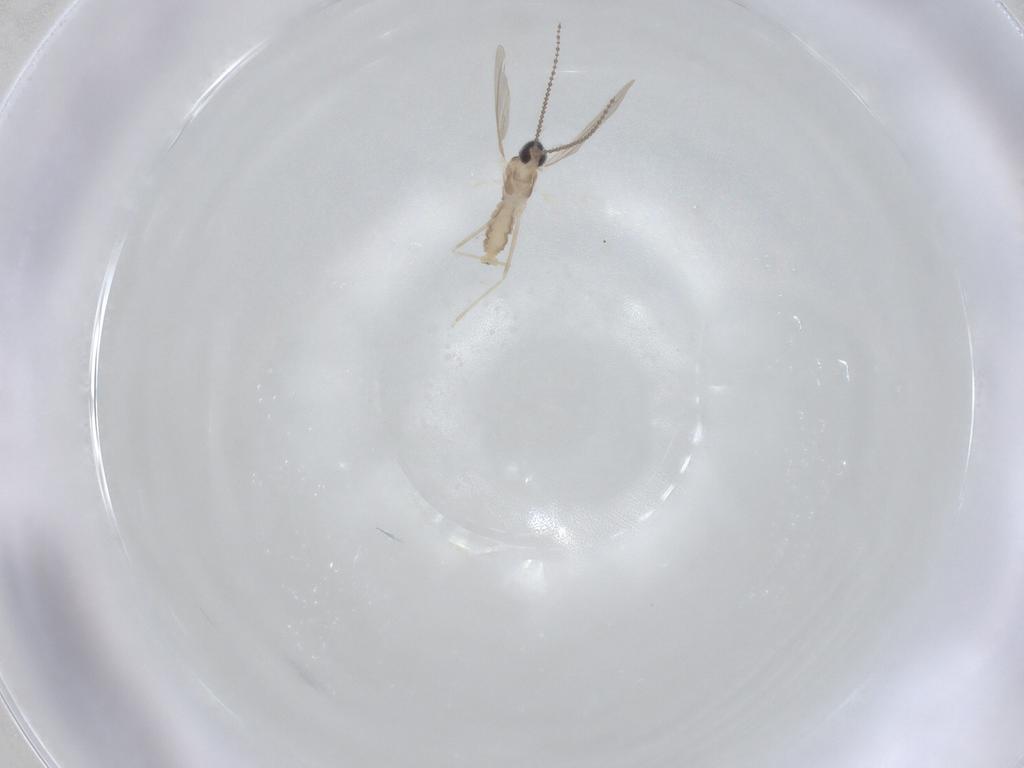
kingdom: Animalia
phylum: Arthropoda
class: Insecta
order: Diptera
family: Cecidomyiidae
